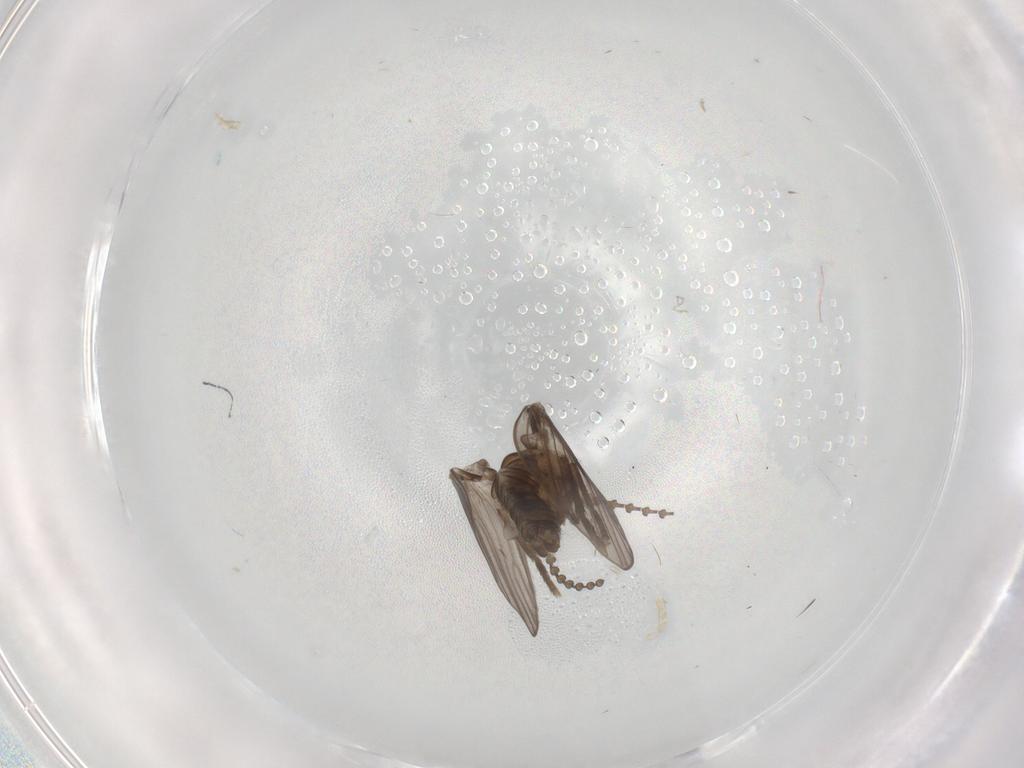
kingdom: Animalia
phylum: Arthropoda
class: Insecta
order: Diptera
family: Psychodidae
